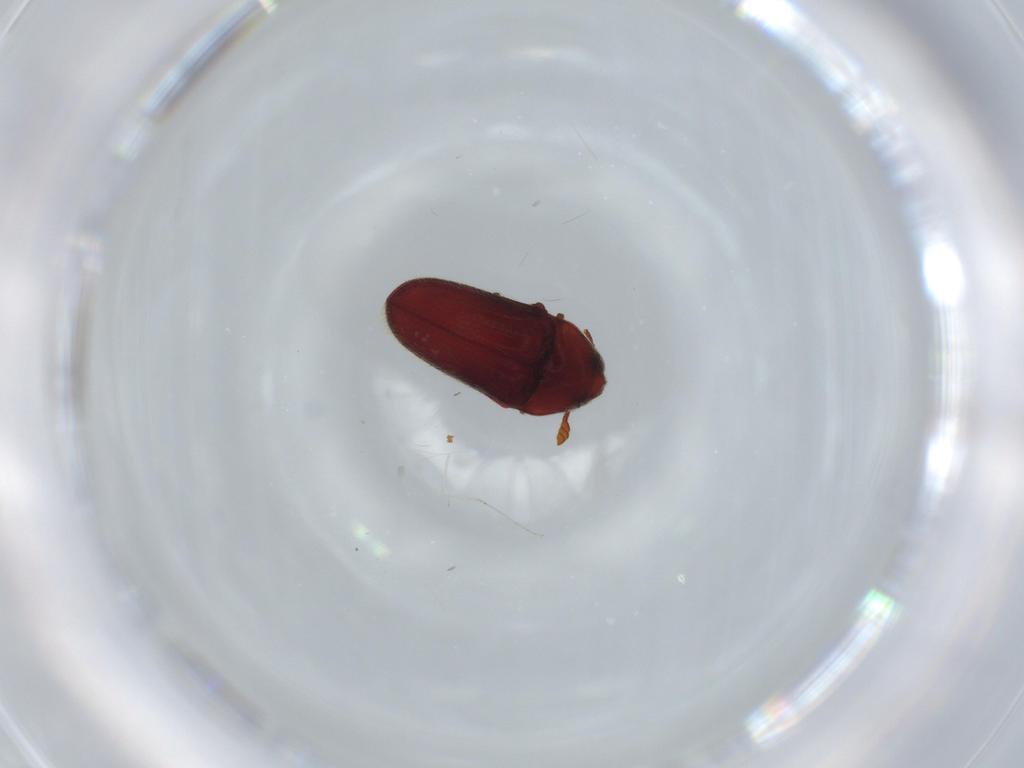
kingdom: Animalia
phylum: Arthropoda
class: Insecta
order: Coleoptera
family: Throscidae
